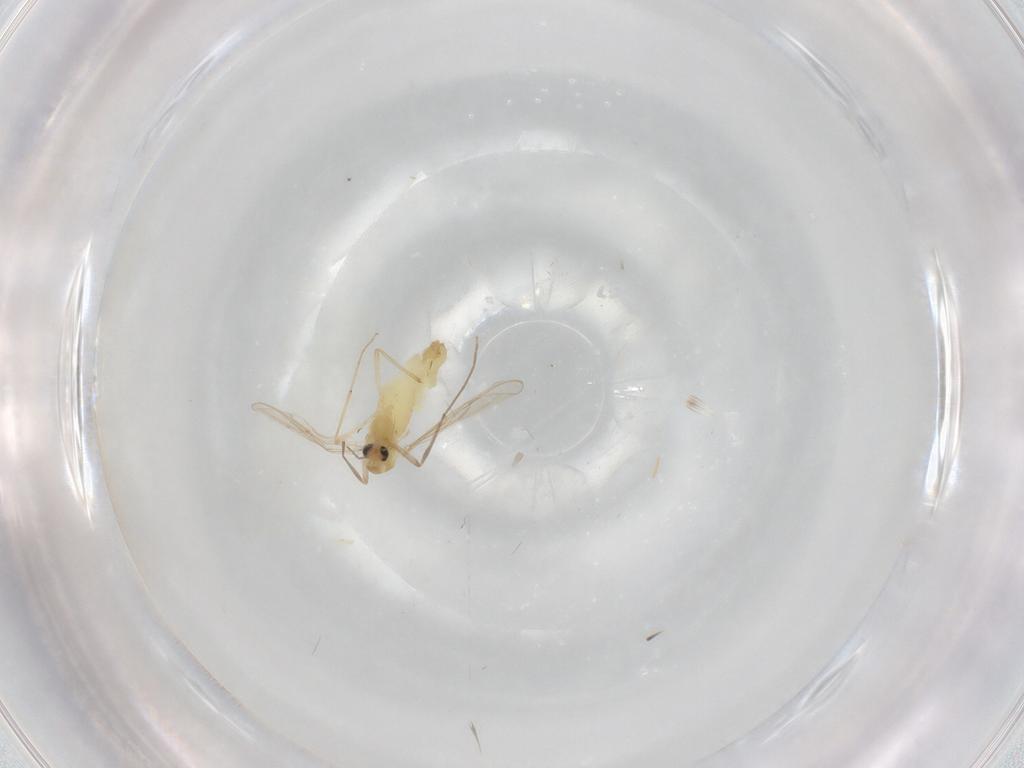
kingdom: Animalia
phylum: Arthropoda
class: Insecta
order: Diptera
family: Chironomidae
